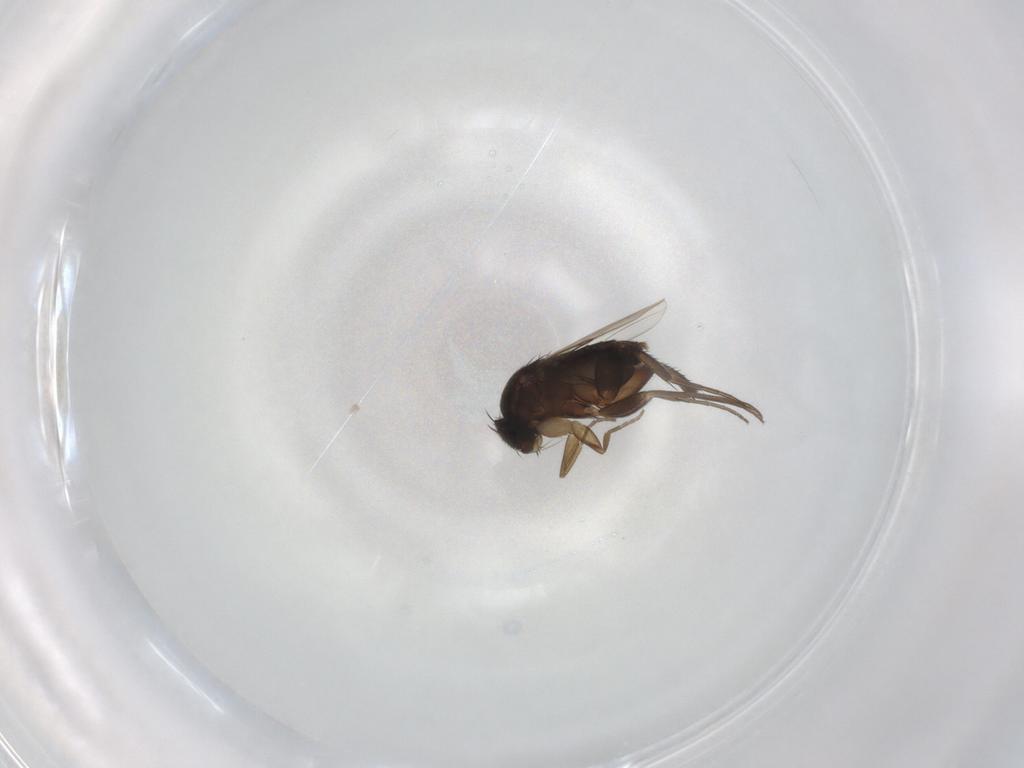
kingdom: Animalia
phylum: Arthropoda
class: Insecta
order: Diptera
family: Phoridae
